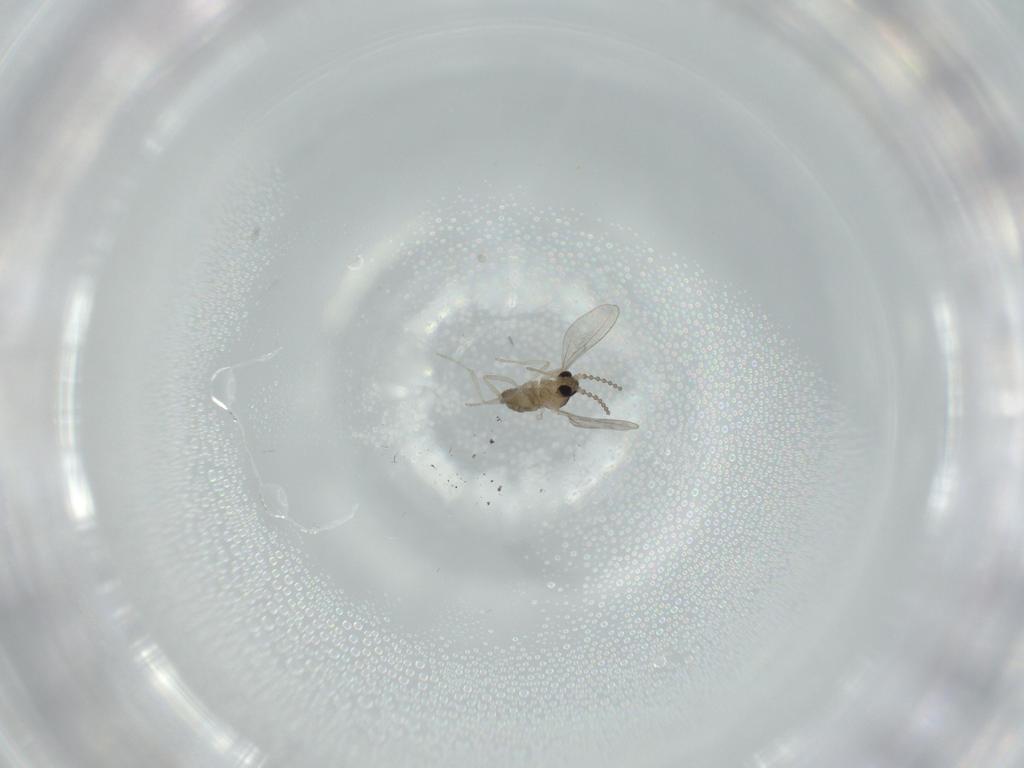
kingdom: Animalia
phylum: Arthropoda
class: Insecta
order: Diptera
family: Cecidomyiidae
